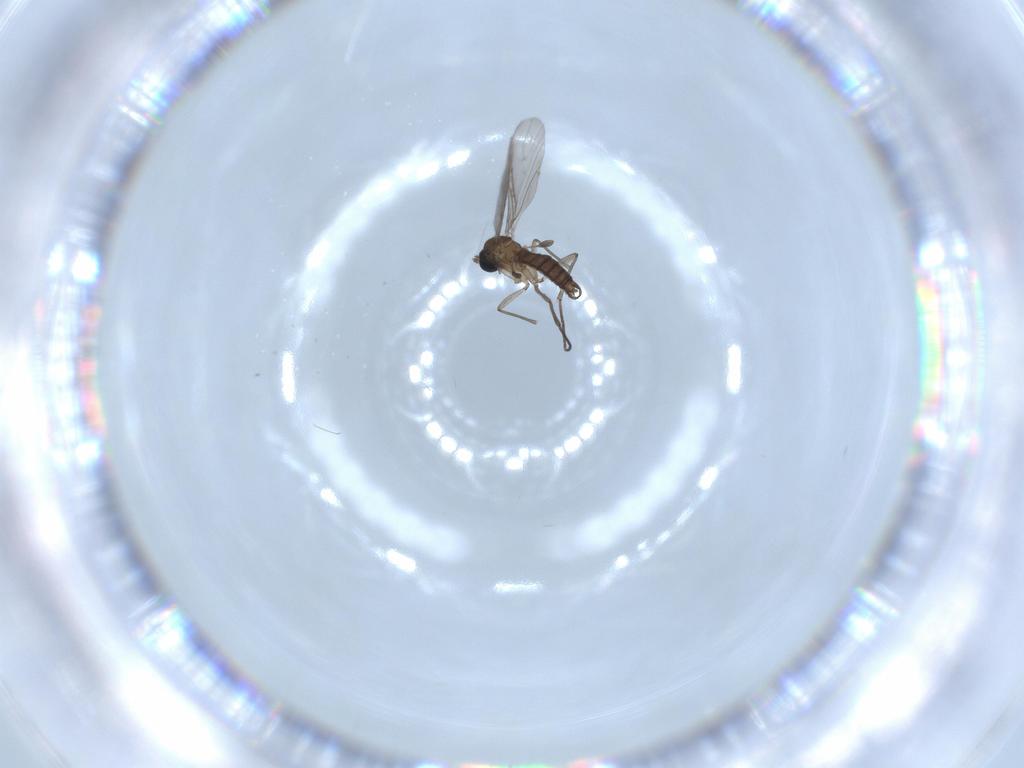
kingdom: Animalia
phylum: Arthropoda
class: Insecta
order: Diptera
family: Sciaridae
